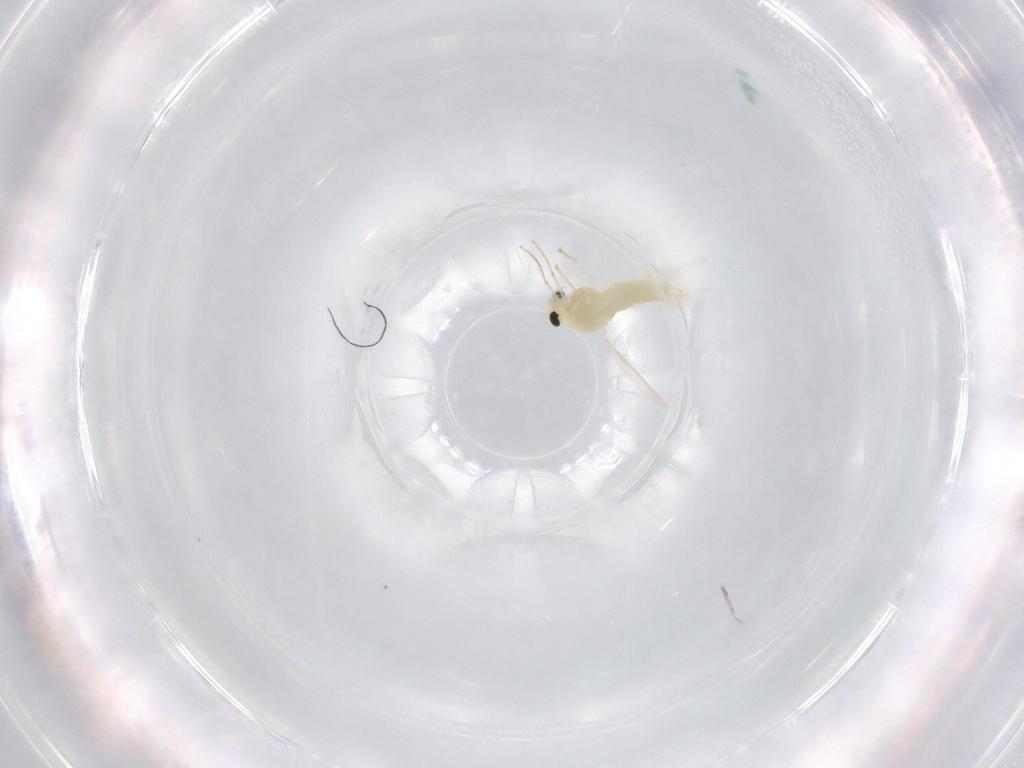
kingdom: Animalia
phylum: Arthropoda
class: Insecta
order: Diptera
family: Chironomidae
